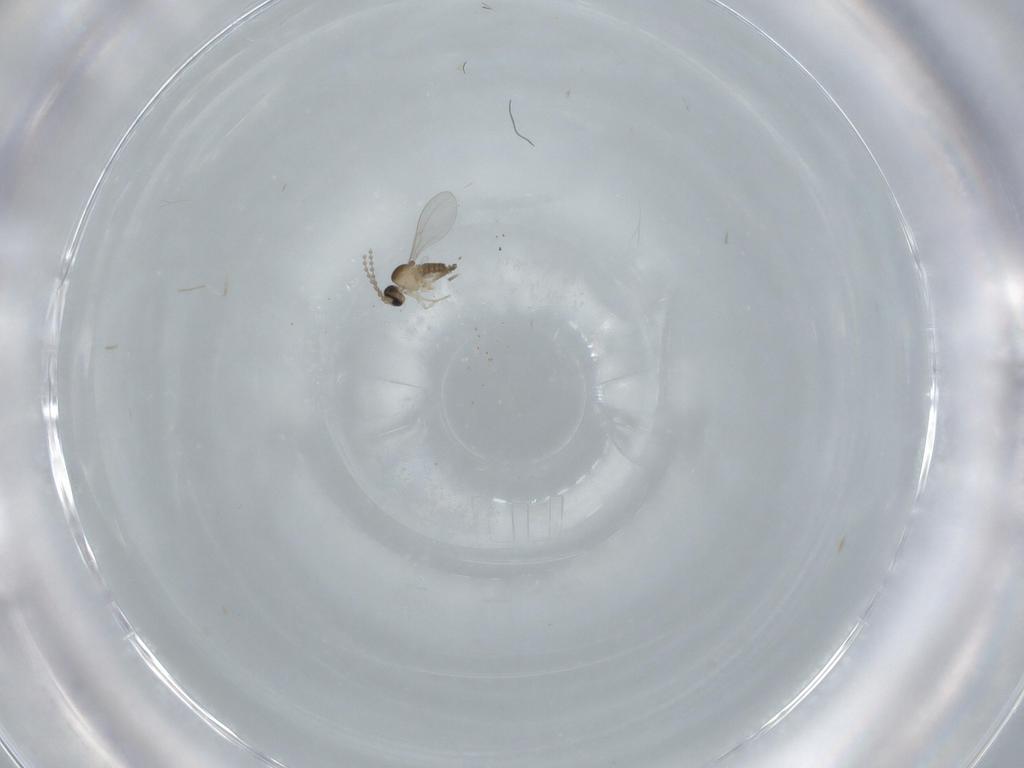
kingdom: Animalia
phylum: Arthropoda
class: Insecta
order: Diptera
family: Cecidomyiidae
